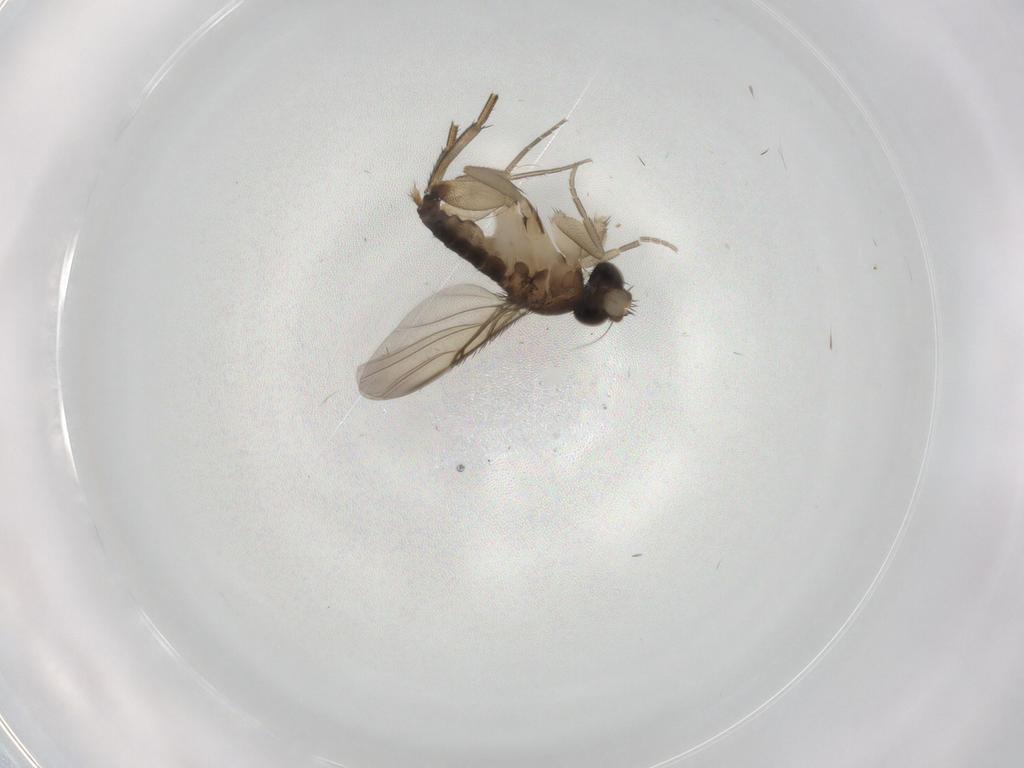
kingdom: Animalia
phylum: Arthropoda
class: Insecta
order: Diptera
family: Phoridae
